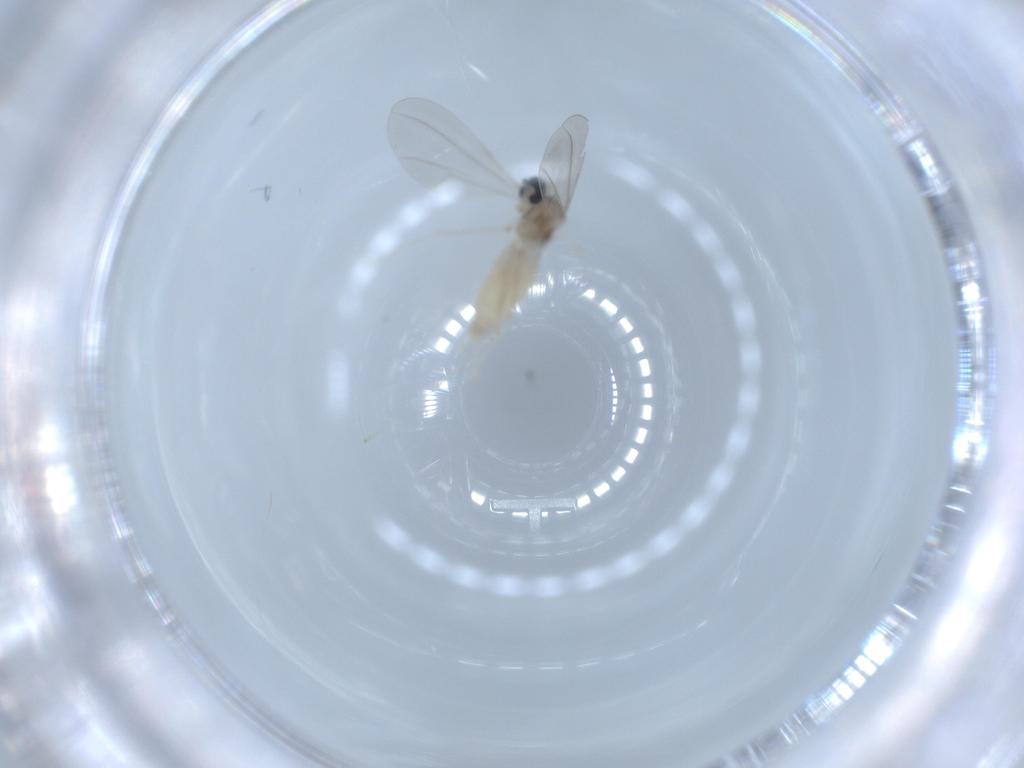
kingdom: Animalia
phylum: Arthropoda
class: Insecta
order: Diptera
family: Cecidomyiidae
